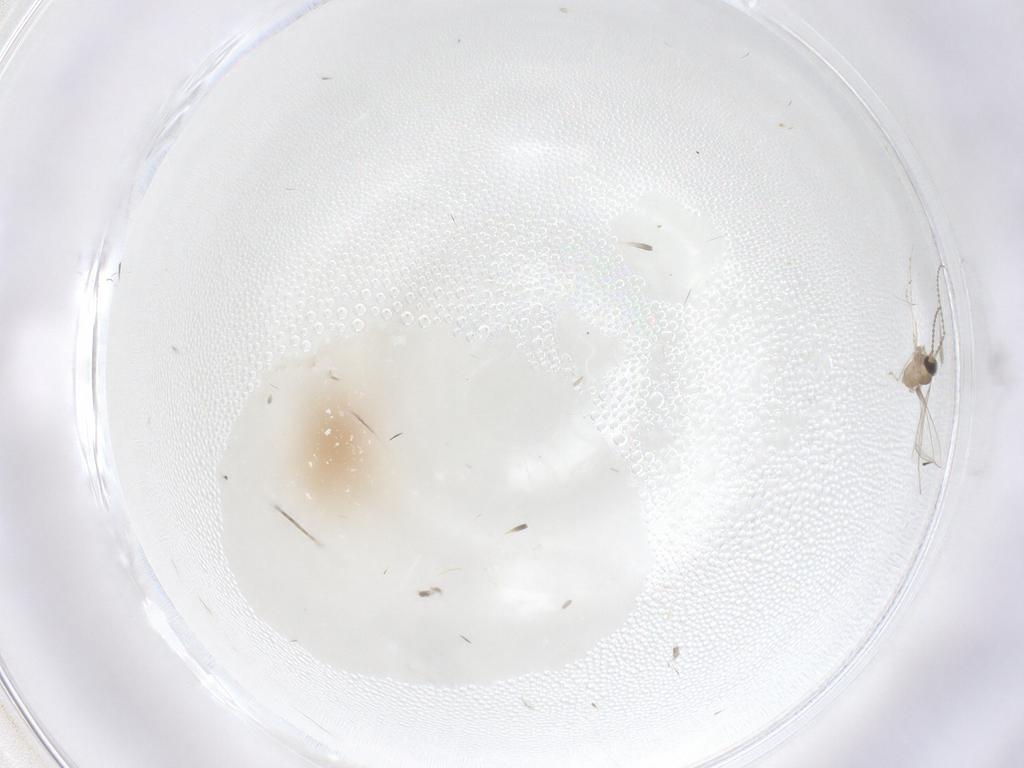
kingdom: Animalia
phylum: Arthropoda
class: Insecta
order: Diptera
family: Cecidomyiidae
